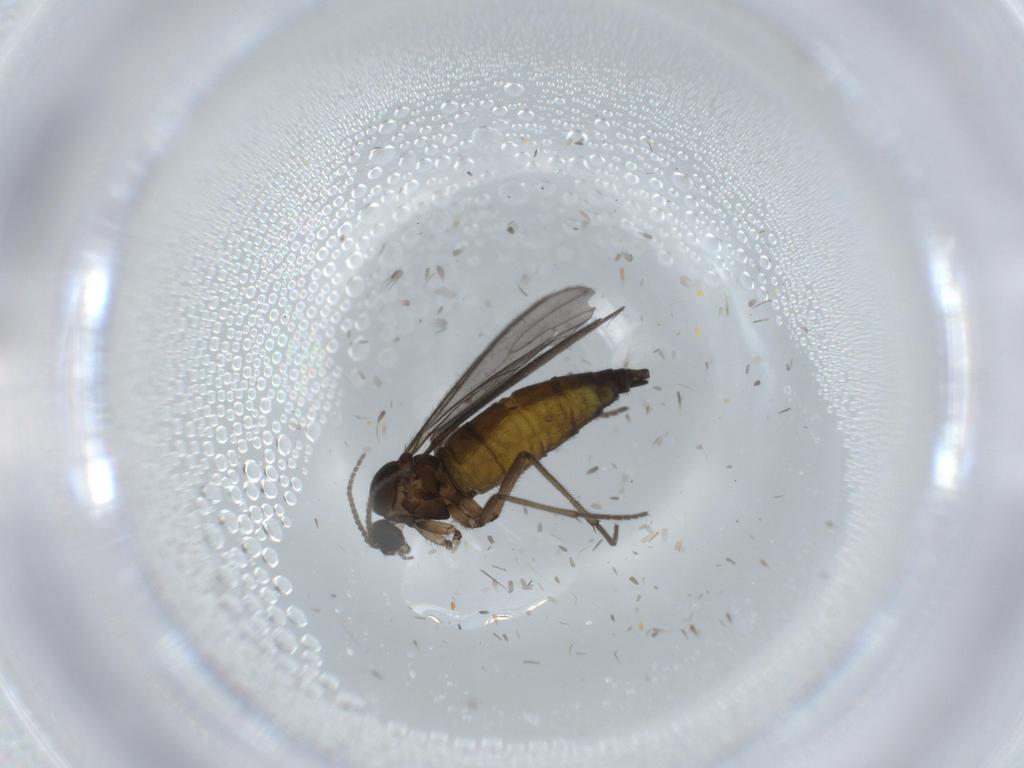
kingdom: Animalia
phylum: Arthropoda
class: Insecta
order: Diptera
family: Sciaridae
